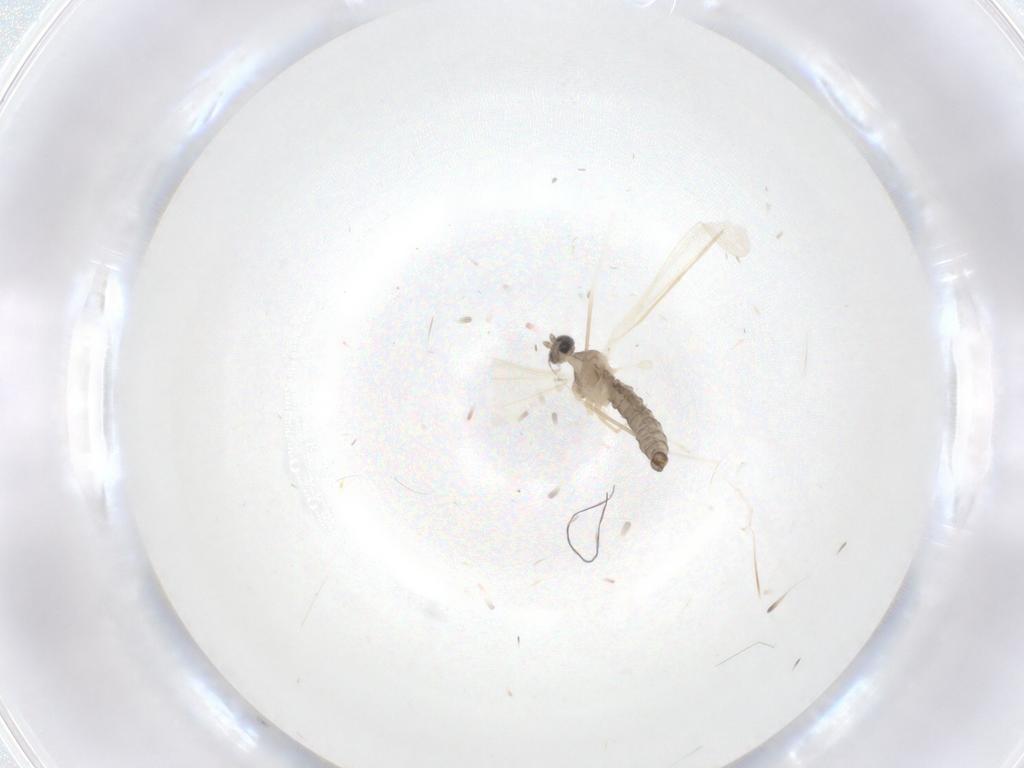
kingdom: Animalia
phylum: Arthropoda
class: Insecta
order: Diptera
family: Cecidomyiidae
